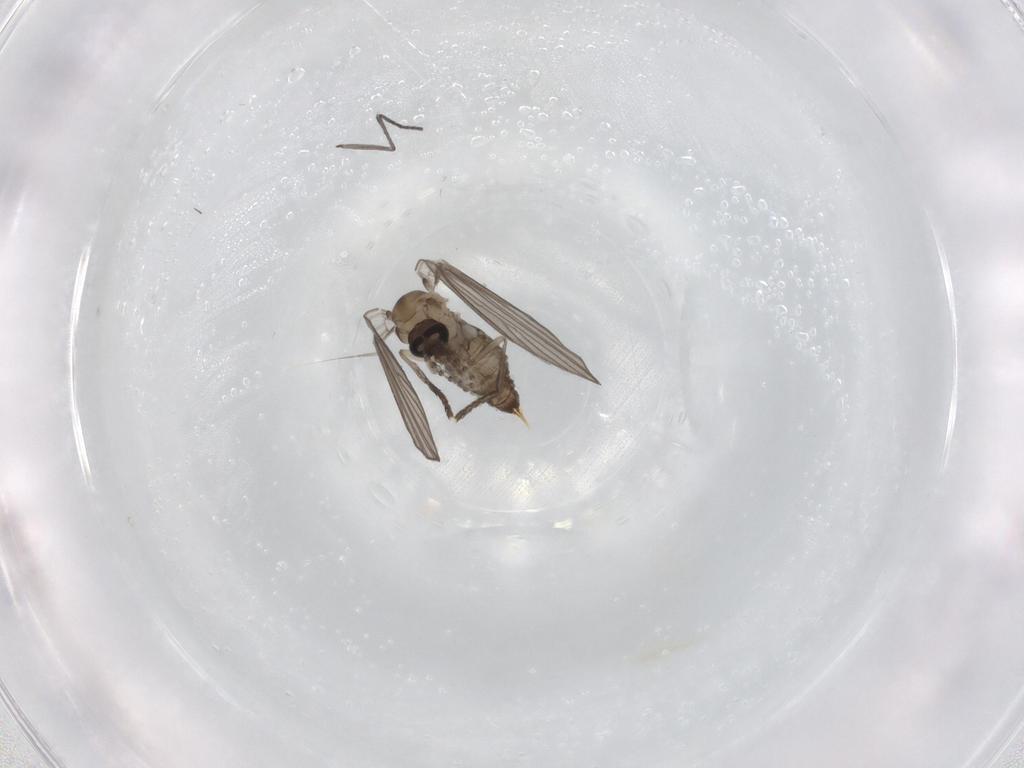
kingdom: Animalia
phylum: Arthropoda
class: Insecta
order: Diptera
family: Psychodidae
